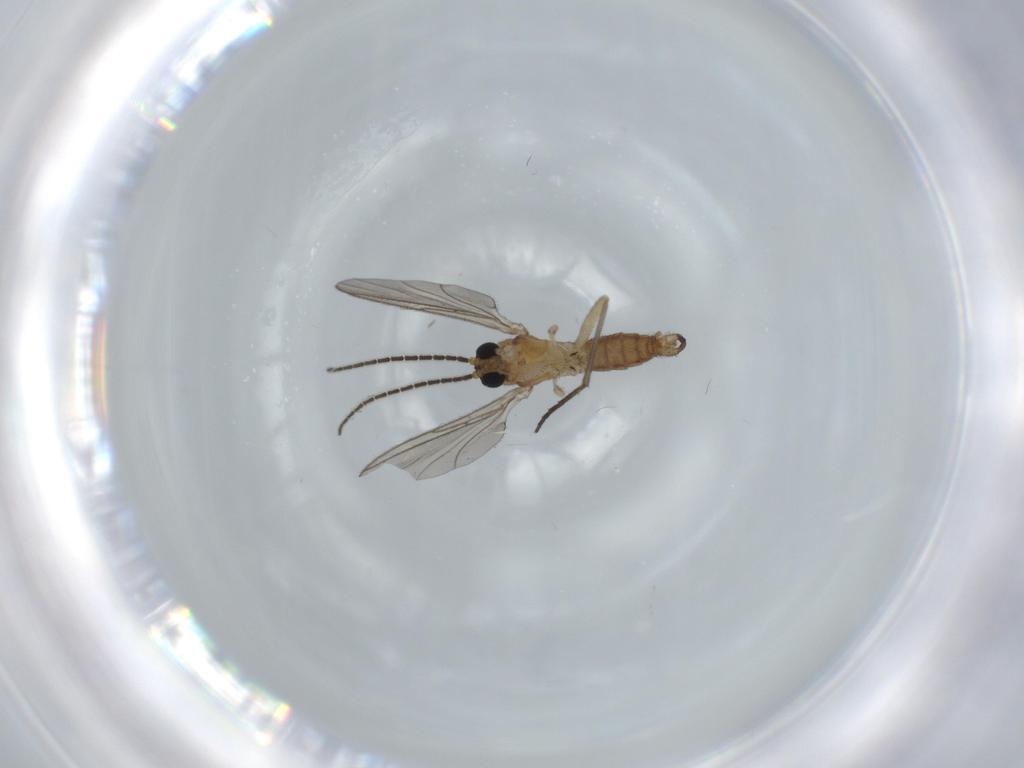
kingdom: Animalia
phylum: Arthropoda
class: Insecta
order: Diptera
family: Sciaridae
